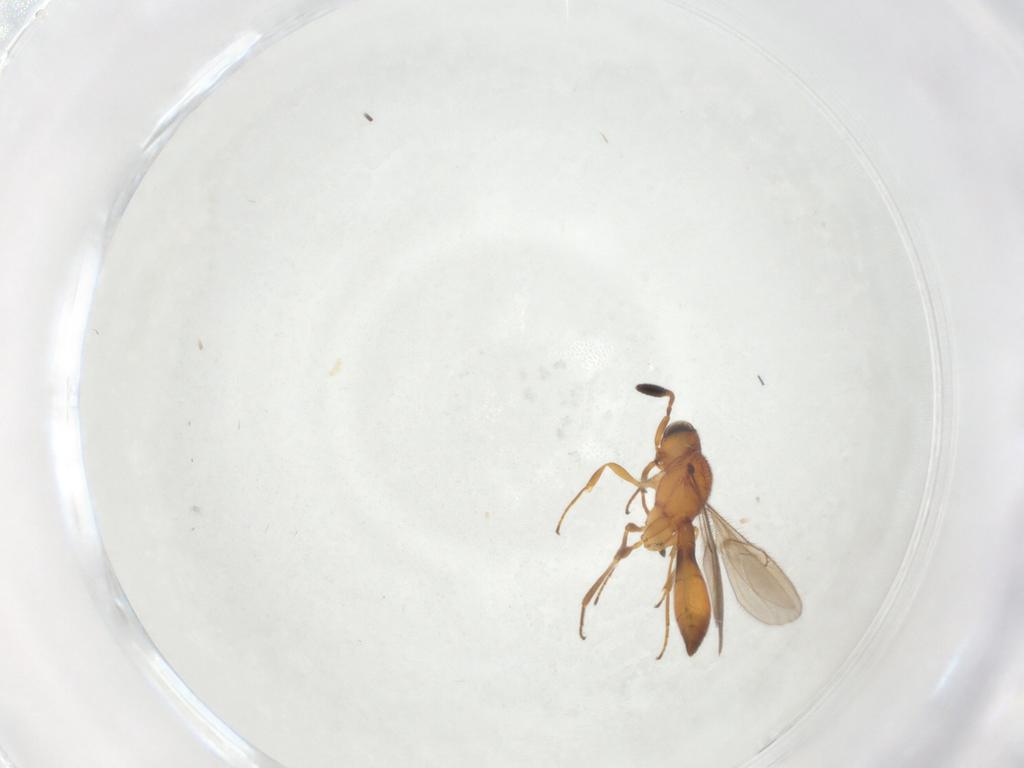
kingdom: Animalia
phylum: Arthropoda
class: Insecta
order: Hymenoptera
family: Scelionidae
